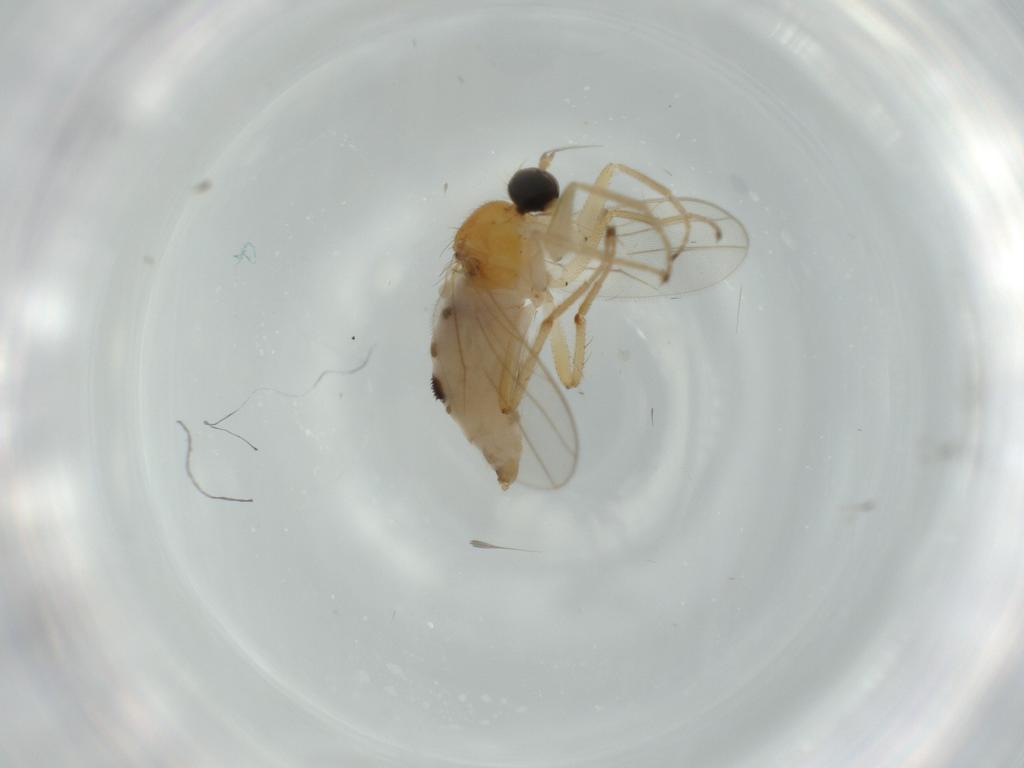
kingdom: Animalia
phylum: Arthropoda
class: Insecta
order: Diptera
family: Hybotidae
